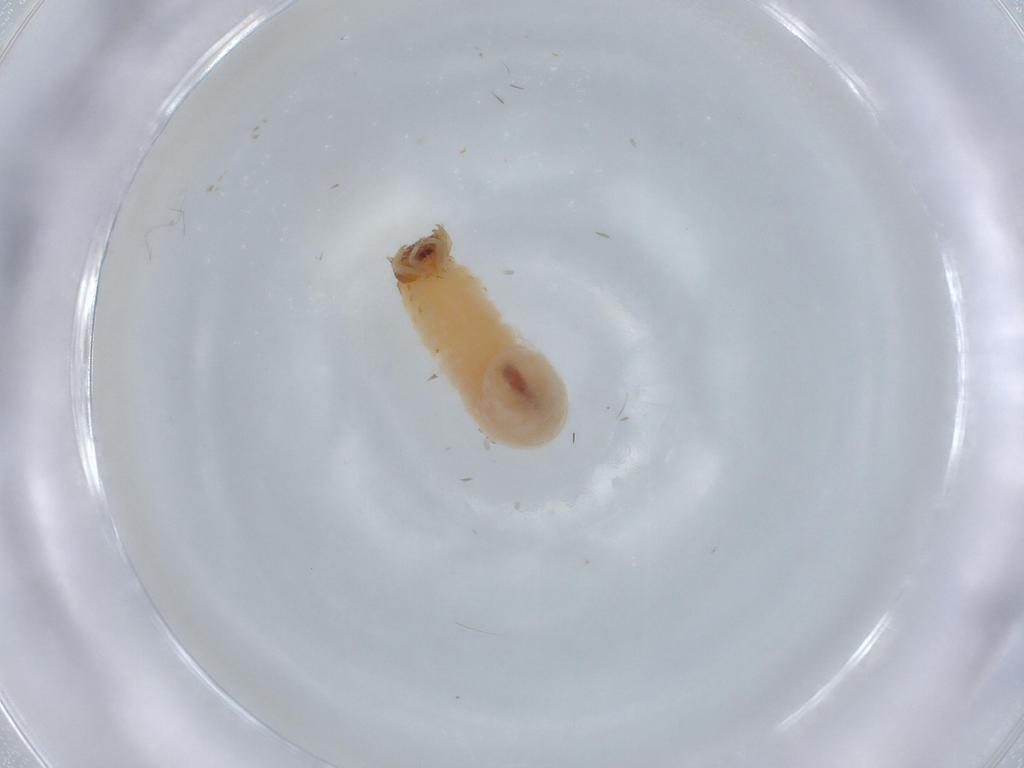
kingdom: Animalia
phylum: Arthropoda
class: Insecta
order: Coleoptera
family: Chrysomelidae
